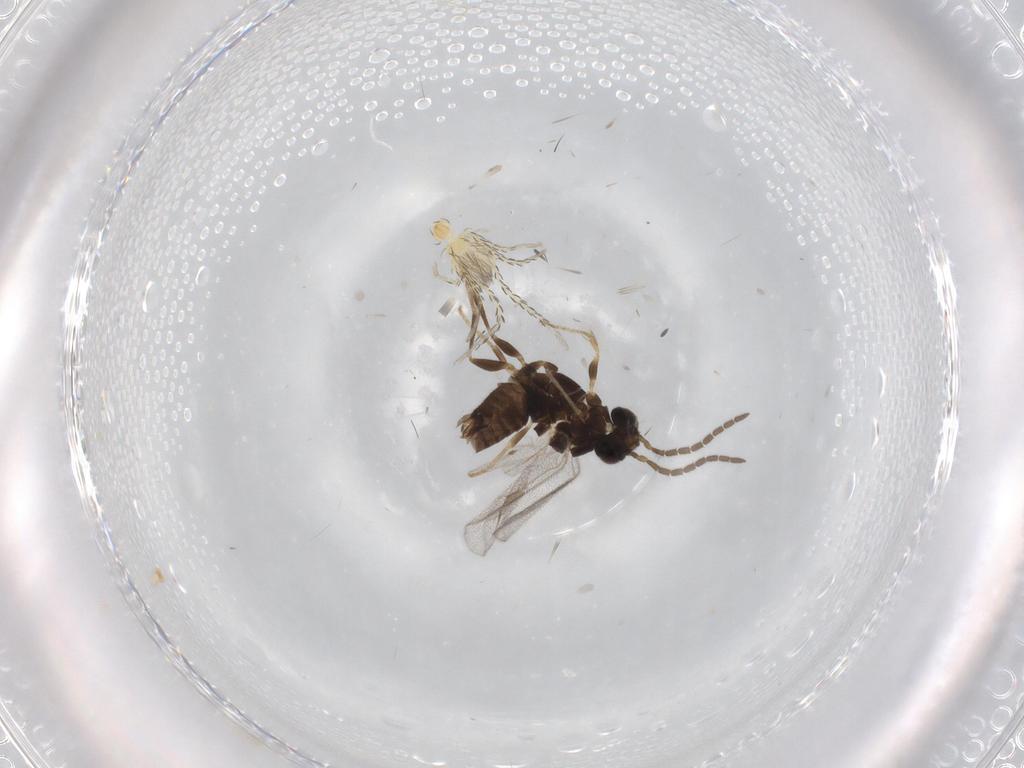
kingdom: Animalia
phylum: Arthropoda
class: Insecta
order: Hymenoptera
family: Dryinidae
